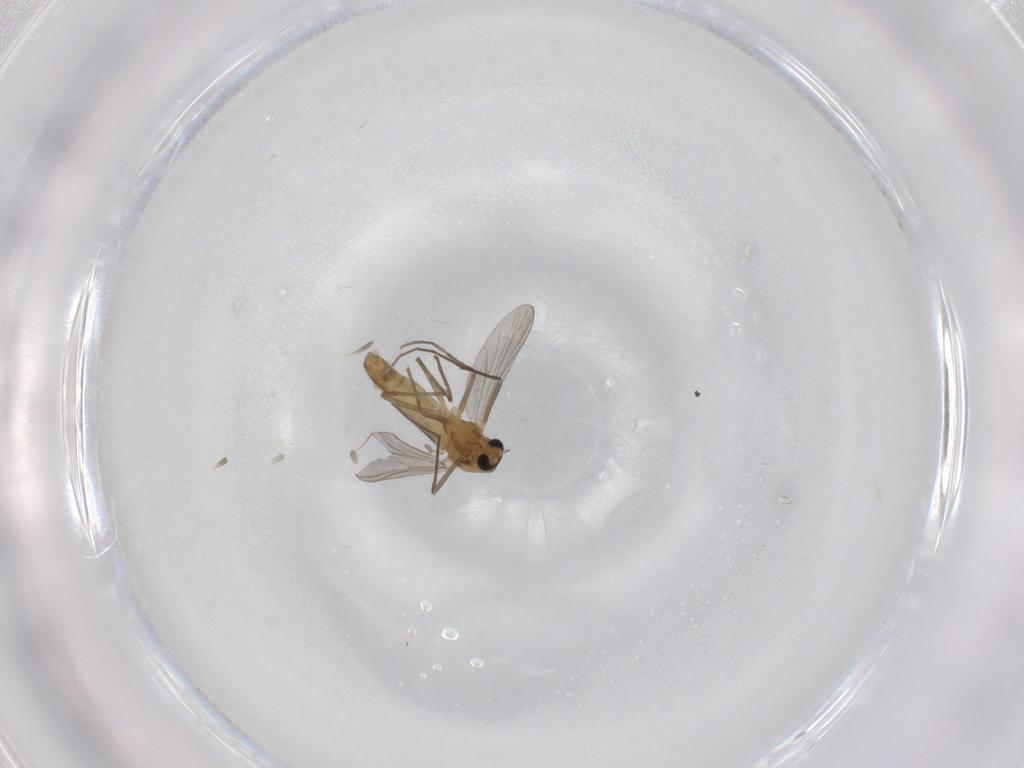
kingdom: Animalia
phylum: Arthropoda
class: Insecta
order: Diptera
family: Chironomidae
